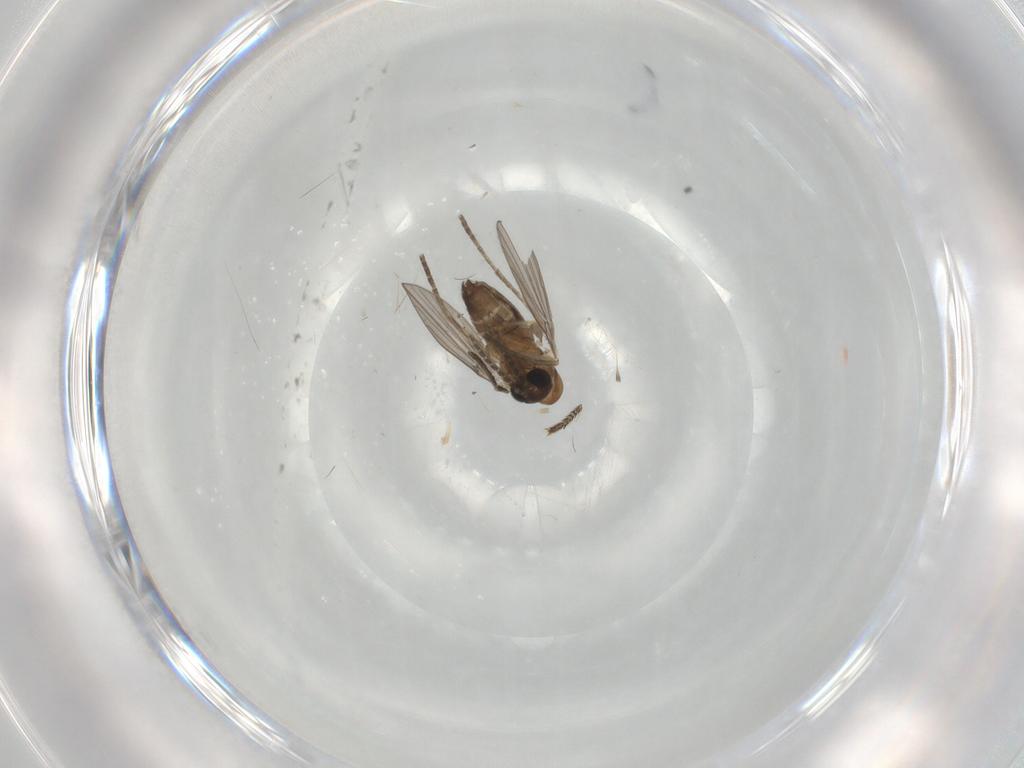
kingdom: Animalia
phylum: Arthropoda
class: Insecta
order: Diptera
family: Psychodidae
